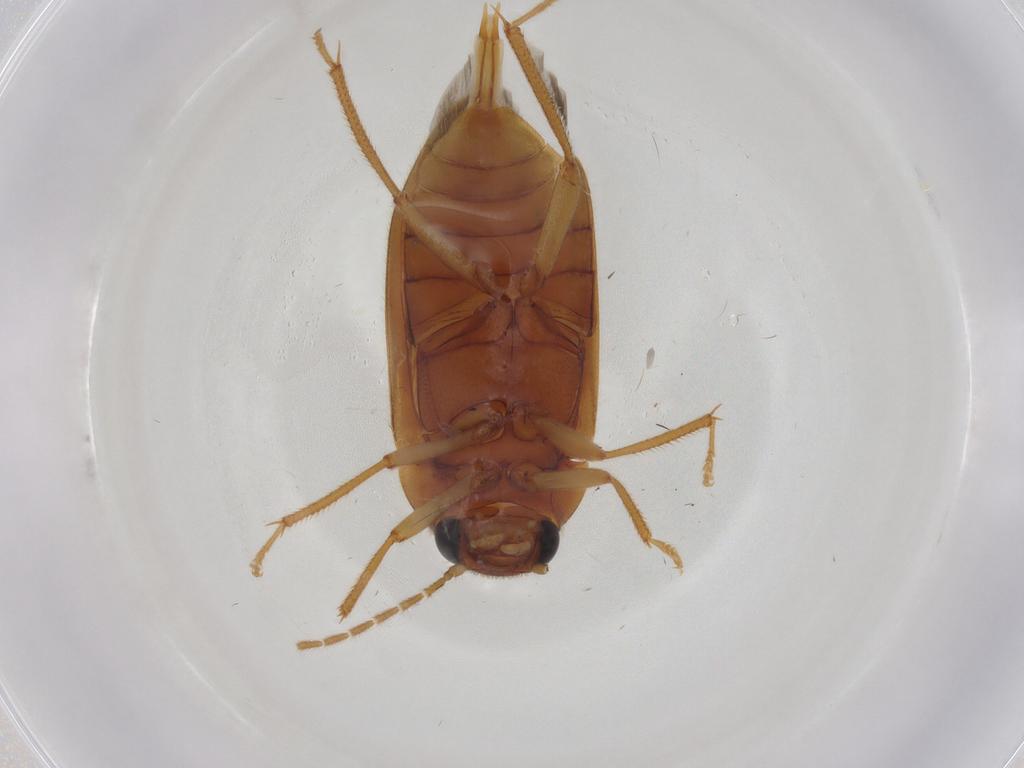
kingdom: Animalia
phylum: Arthropoda
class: Insecta
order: Coleoptera
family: Ptilodactylidae
